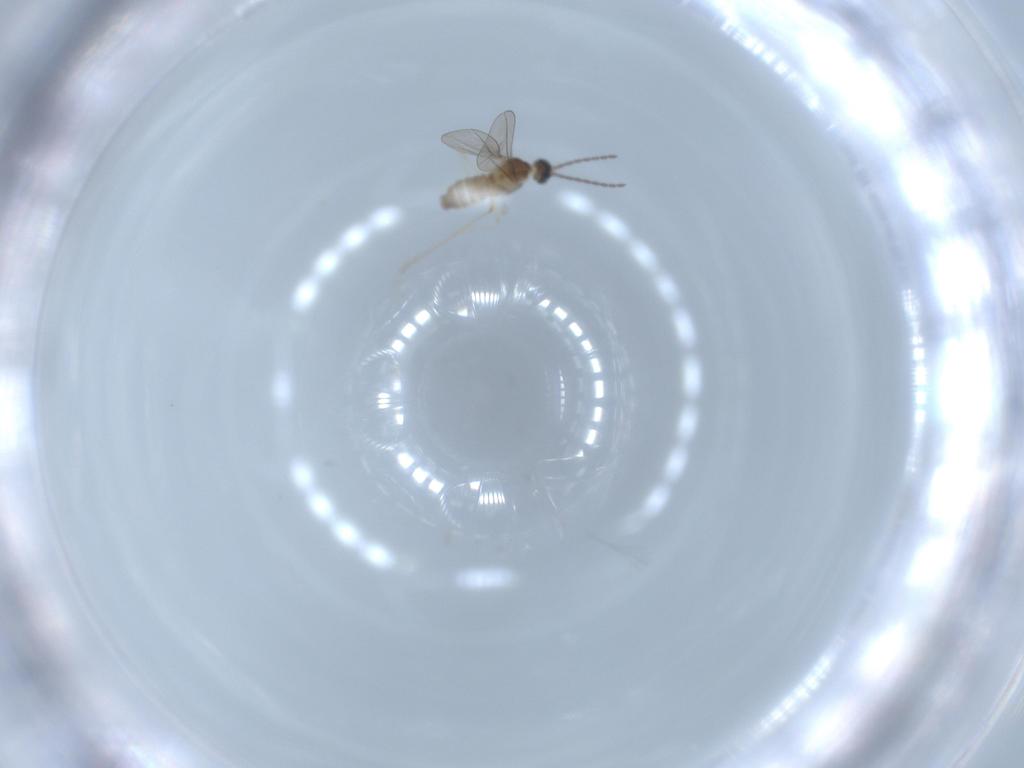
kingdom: Animalia
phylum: Arthropoda
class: Insecta
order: Diptera
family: Cecidomyiidae
